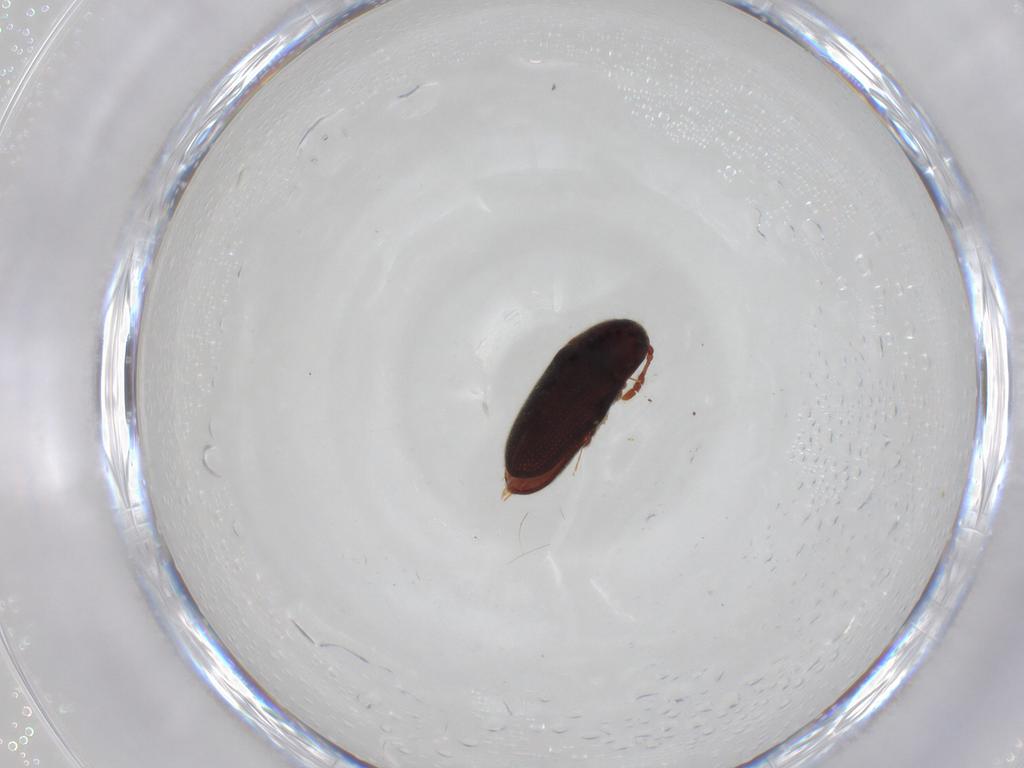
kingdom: Animalia
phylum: Arthropoda
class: Insecta
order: Coleoptera
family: Throscidae
